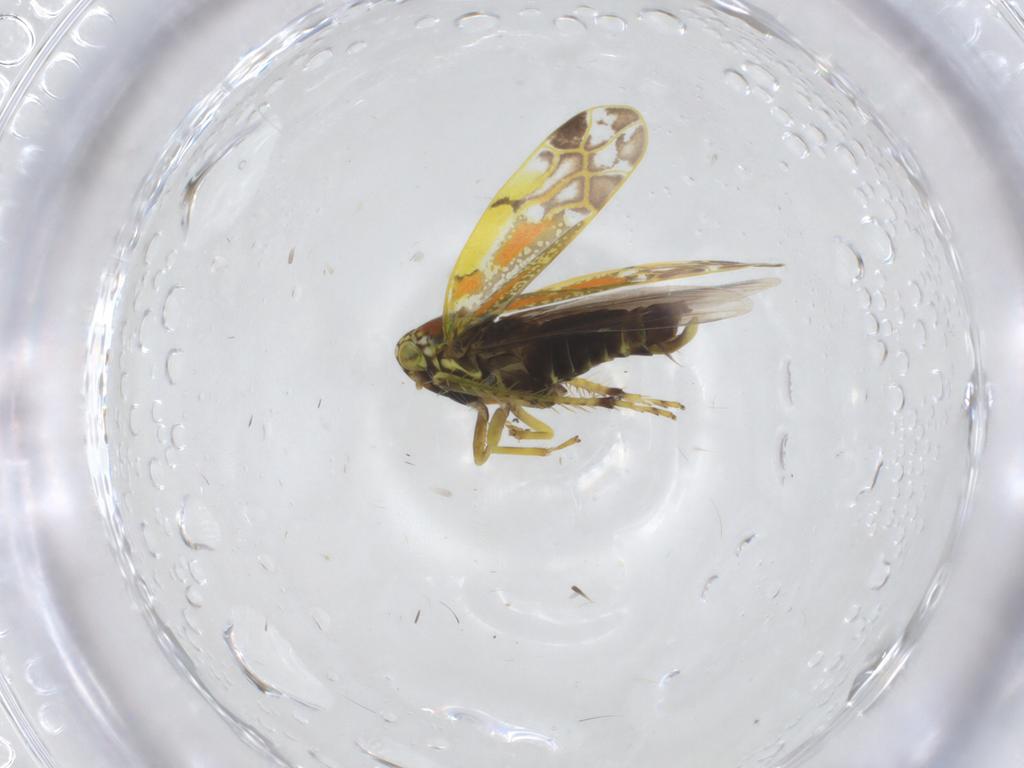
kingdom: Animalia
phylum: Arthropoda
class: Insecta
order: Hemiptera
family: Cicadellidae
